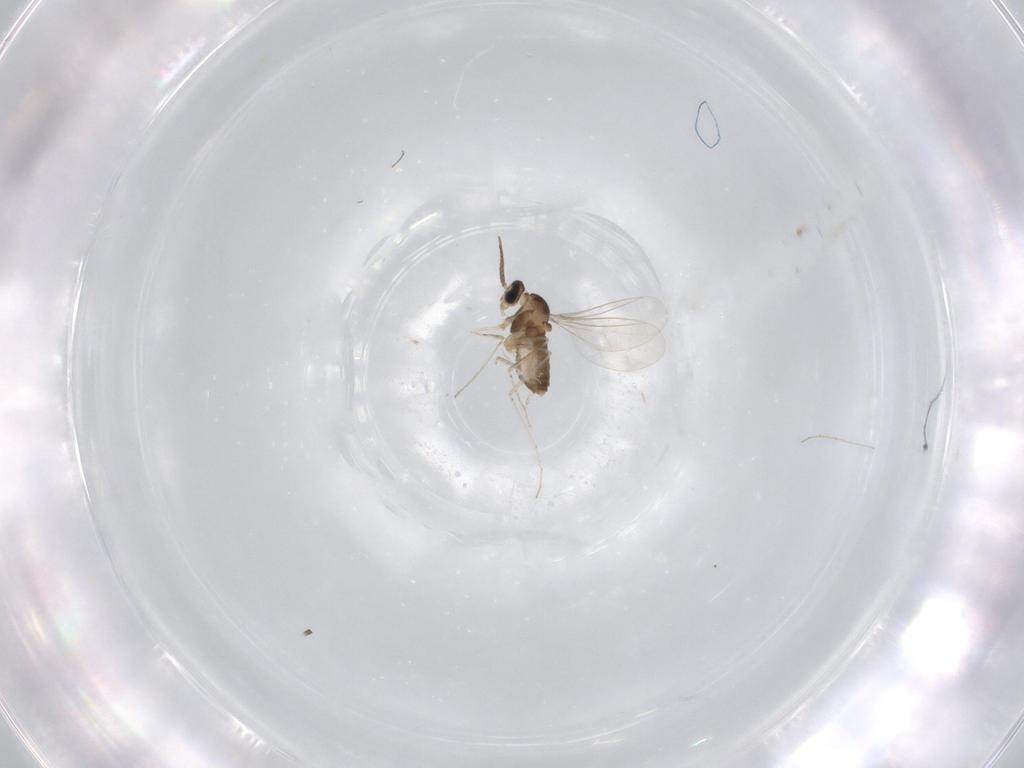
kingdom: Animalia
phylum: Arthropoda
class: Insecta
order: Diptera
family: Cecidomyiidae
